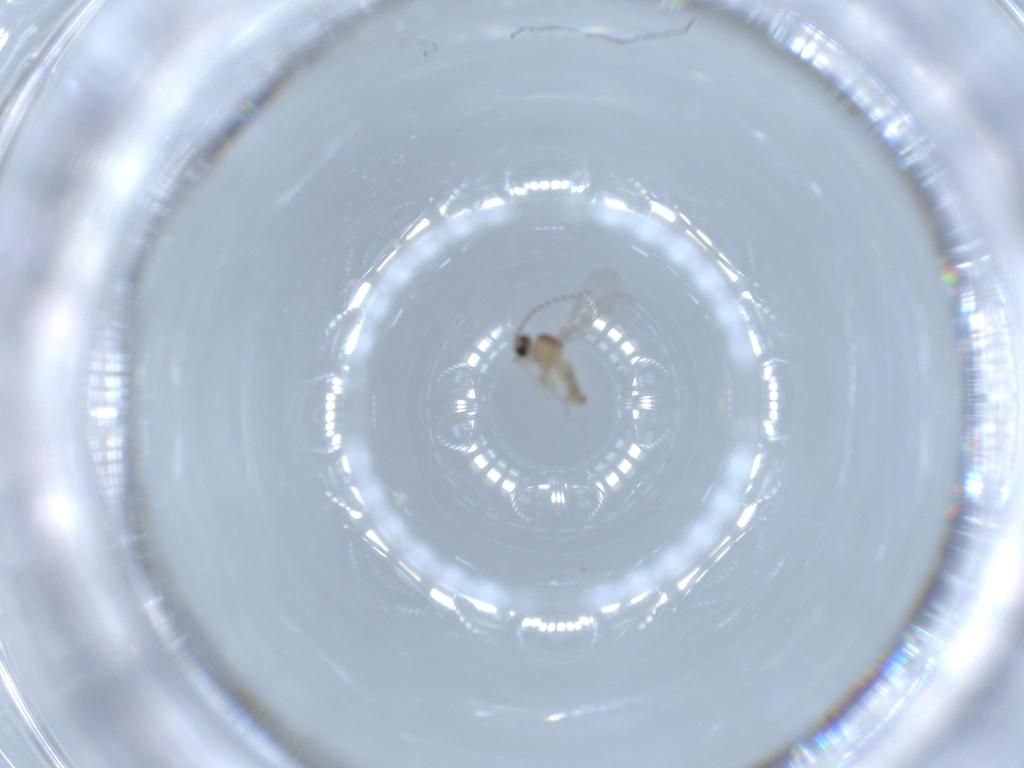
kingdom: Animalia
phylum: Arthropoda
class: Insecta
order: Diptera
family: Cecidomyiidae
